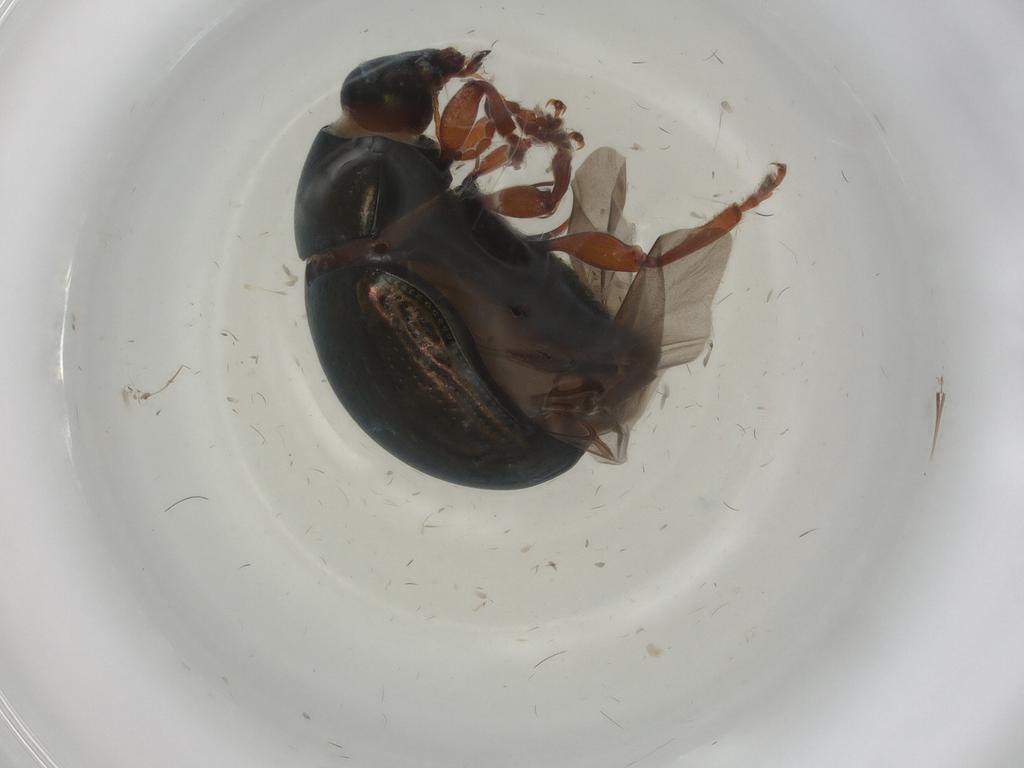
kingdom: Animalia
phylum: Arthropoda
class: Insecta
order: Coleoptera
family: Chrysomelidae
